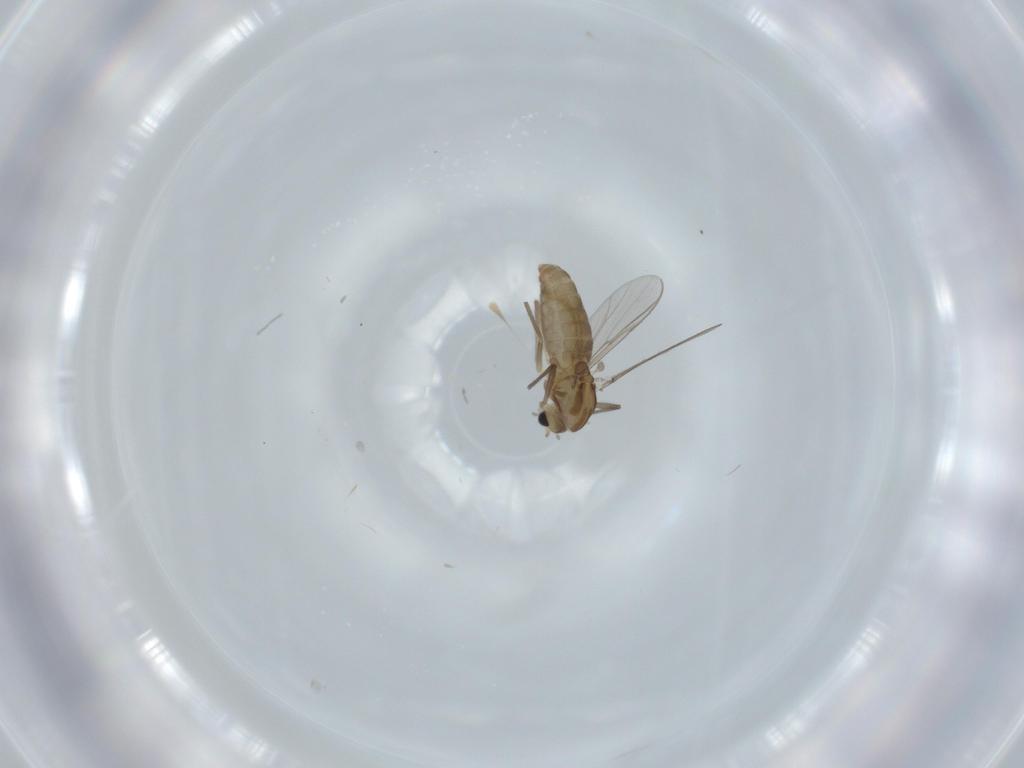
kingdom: Animalia
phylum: Arthropoda
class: Insecta
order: Diptera
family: Chironomidae
